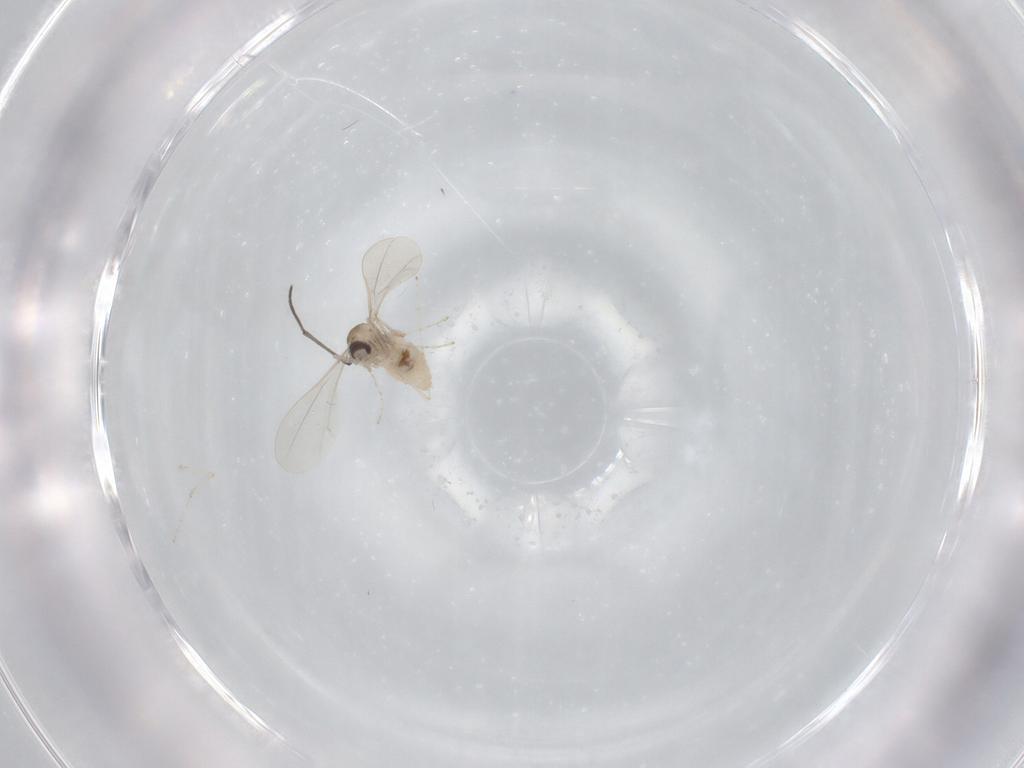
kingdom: Animalia
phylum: Arthropoda
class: Insecta
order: Diptera
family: Cecidomyiidae
